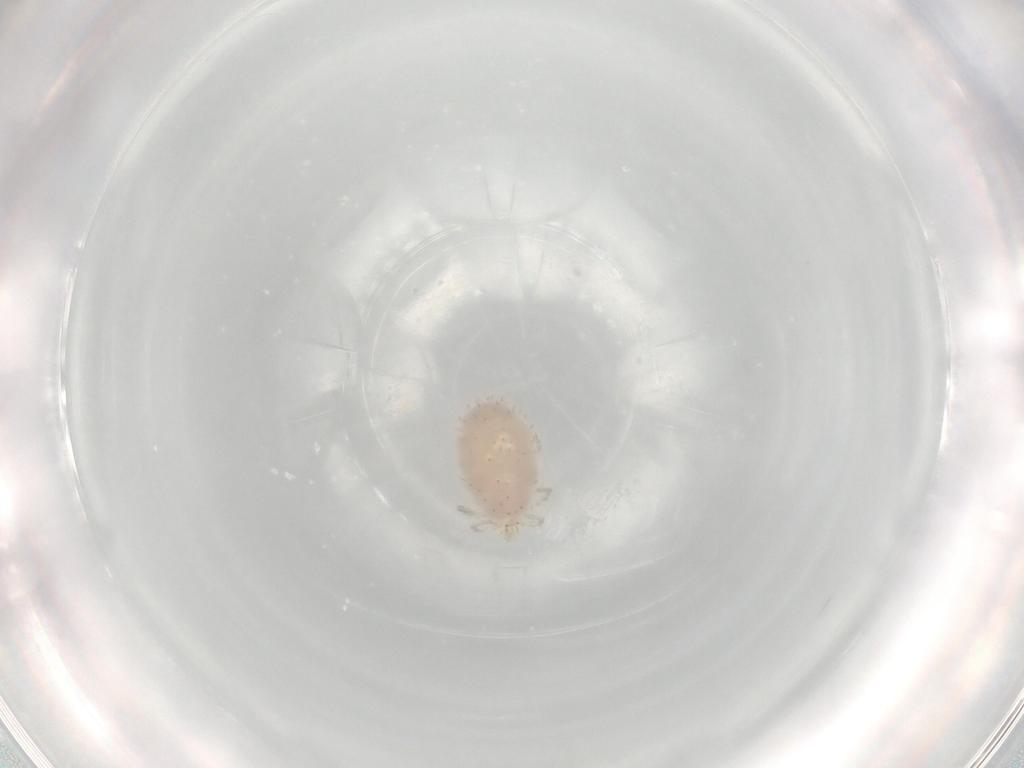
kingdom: Animalia
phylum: Arthropoda
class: Arachnida
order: Trombidiformes
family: Erythraeidae
